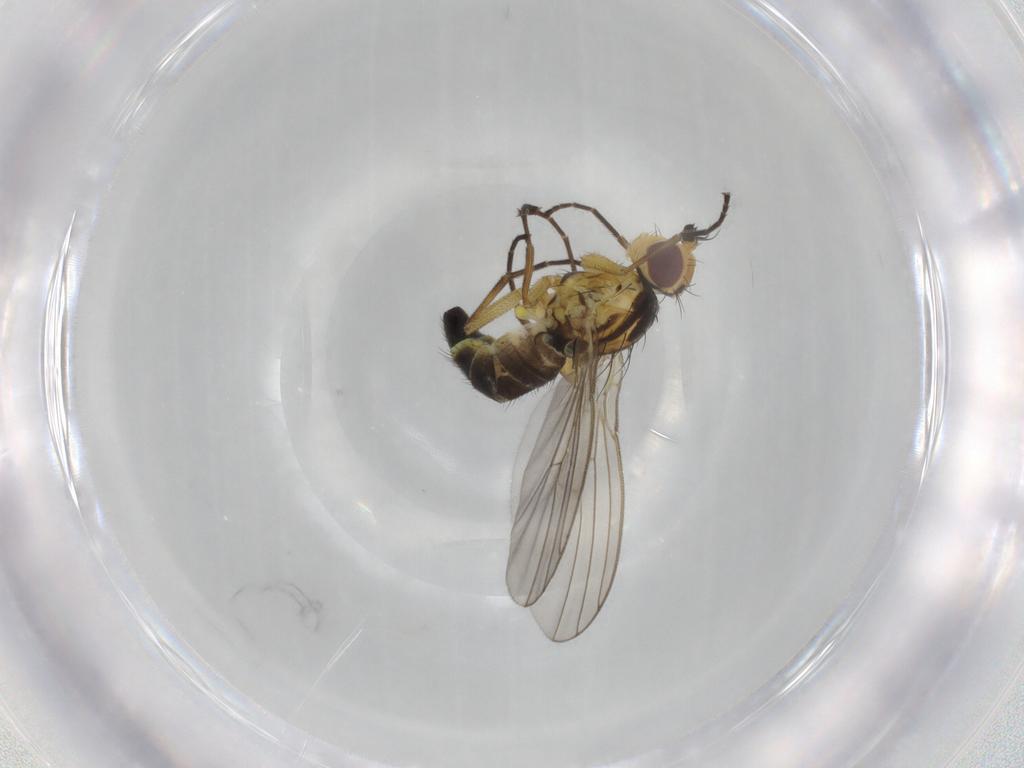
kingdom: Animalia
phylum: Arthropoda
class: Insecta
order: Diptera
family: Agromyzidae
